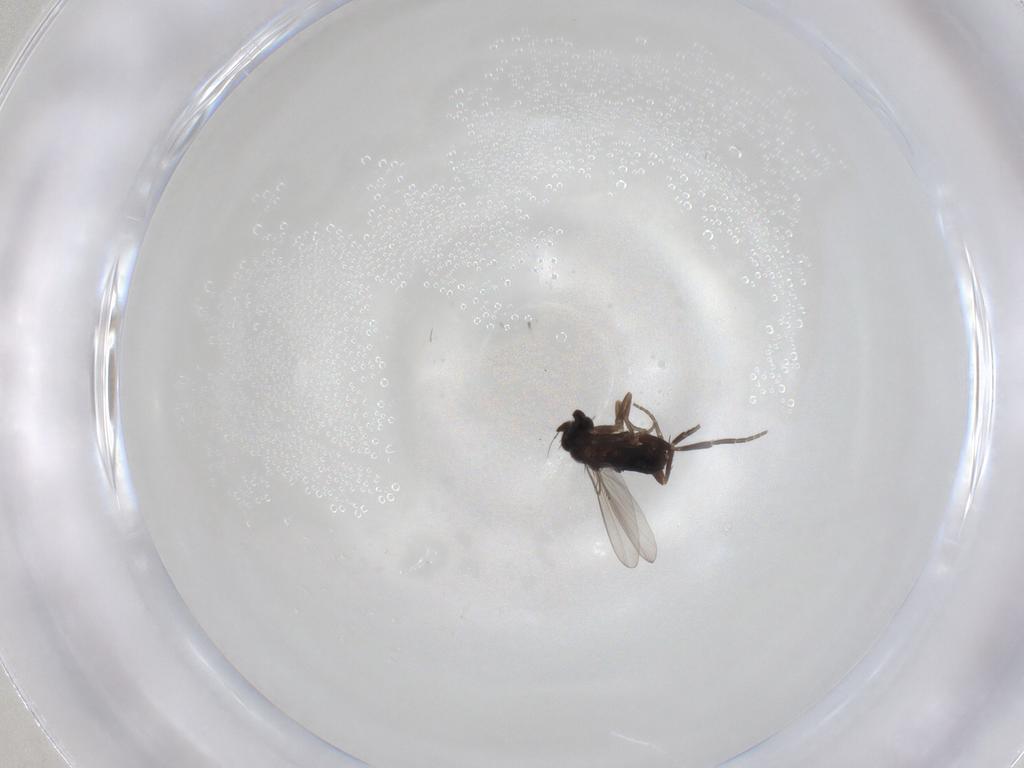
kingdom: Animalia
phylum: Arthropoda
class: Insecta
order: Diptera
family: Phoridae
